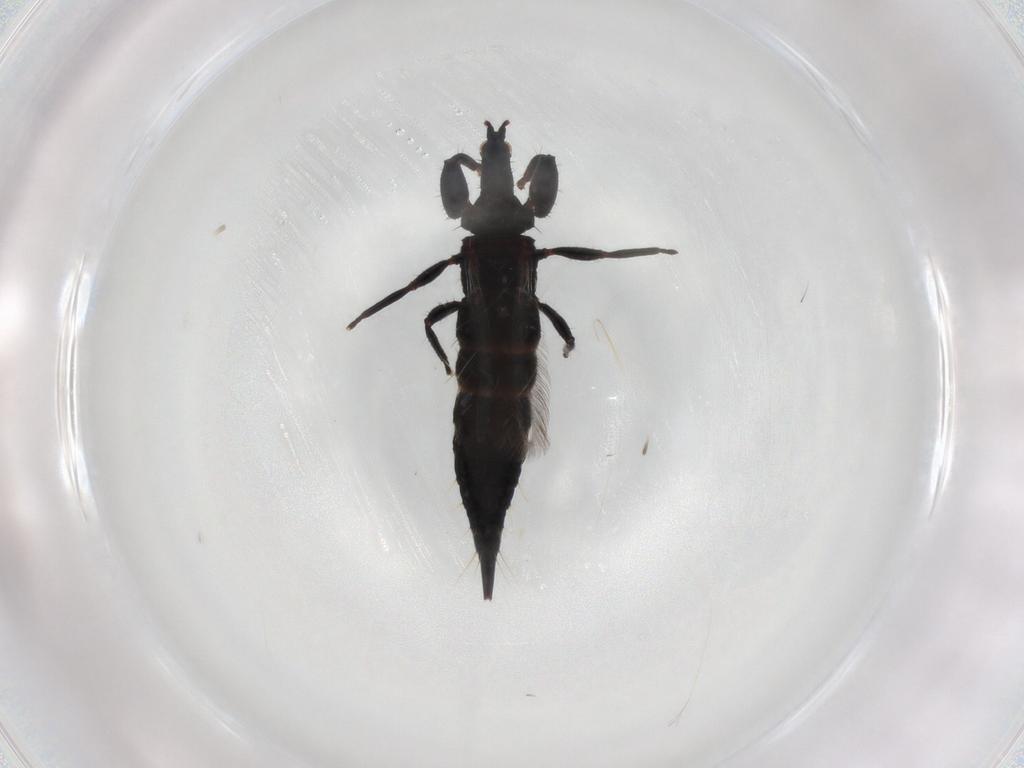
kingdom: Animalia
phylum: Arthropoda
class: Insecta
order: Thysanoptera
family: Phlaeothripidae
